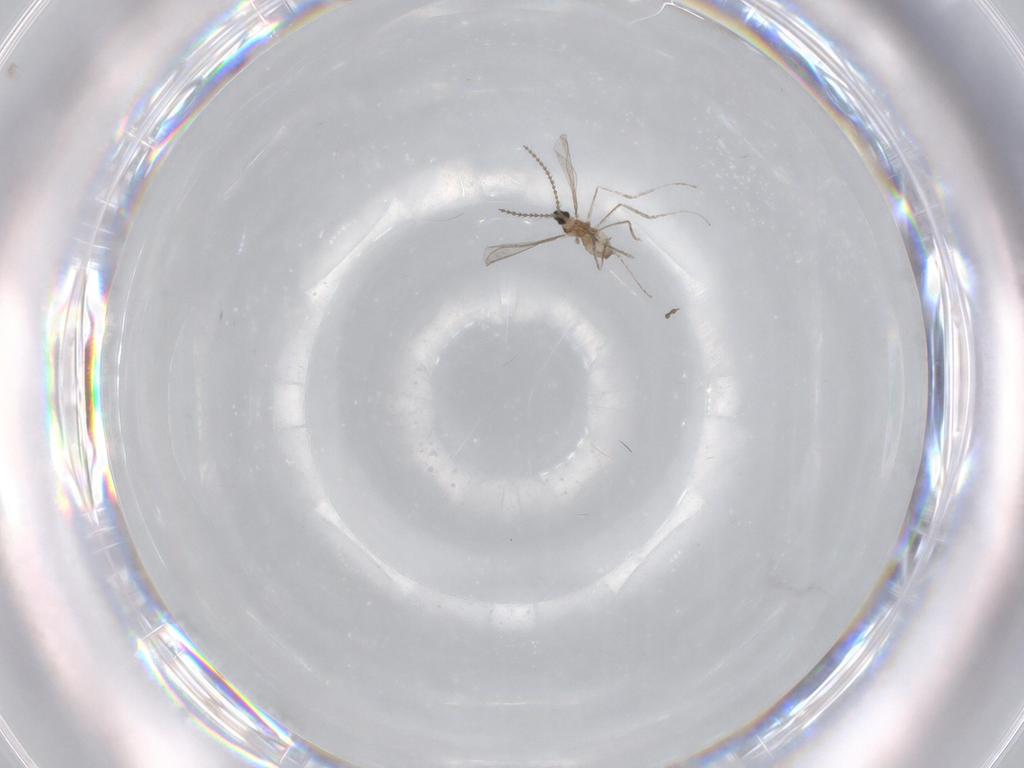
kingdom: Animalia
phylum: Arthropoda
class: Insecta
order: Diptera
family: Cecidomyiidae
